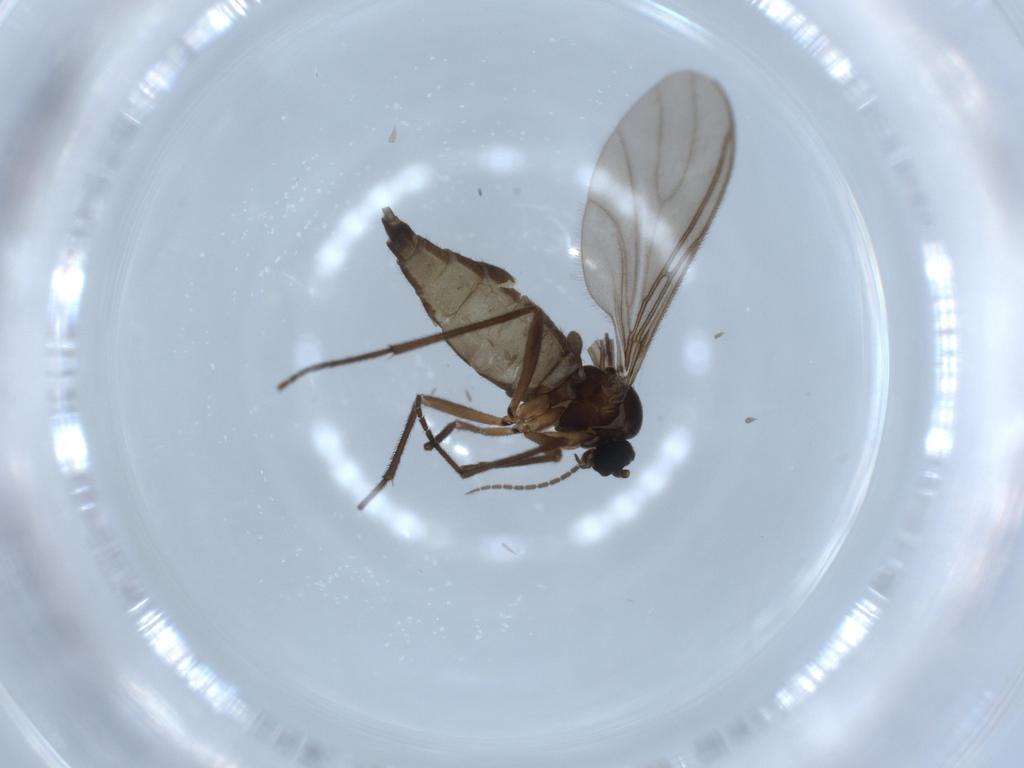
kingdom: Animalia
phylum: Arthropoda
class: Insecta
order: Diptera
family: Sciaridae
